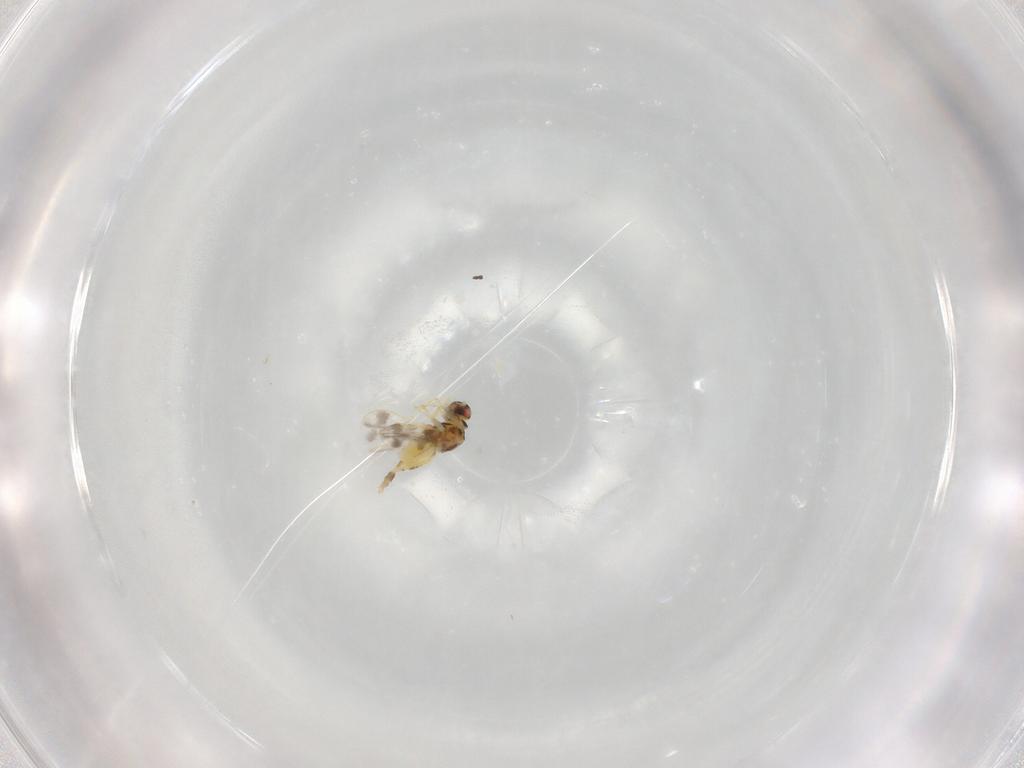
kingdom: Animalia
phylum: Arthropoda
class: Insecta
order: Hemiptera
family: Aleyrodidae
